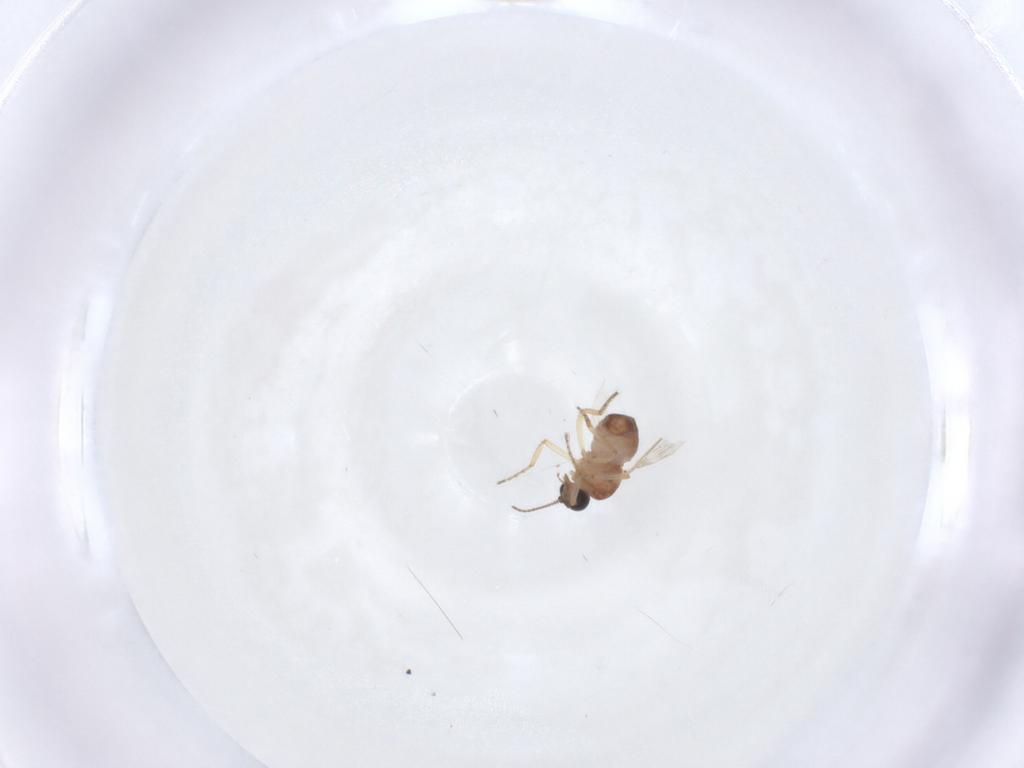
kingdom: Animalia
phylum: Arthropoda
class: Insecta
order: Diptera
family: Ceratopogonidae
